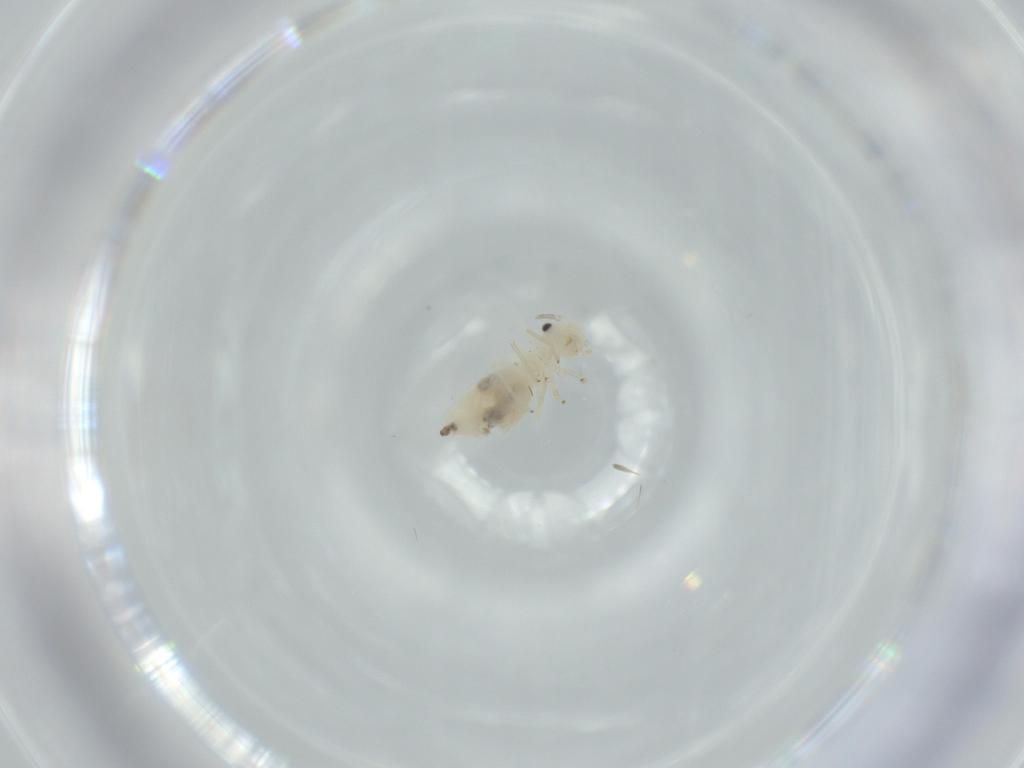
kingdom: Animalia
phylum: Arthropoda
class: Insecta
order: Psocodea
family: Caeciliusidae
